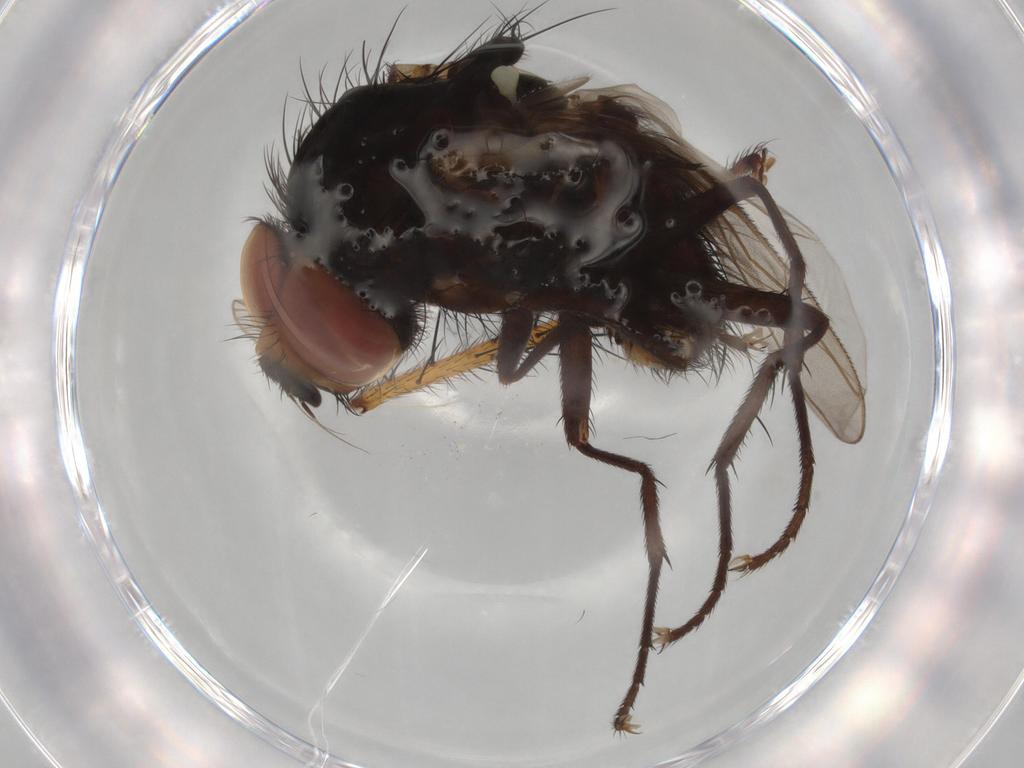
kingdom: Animalia
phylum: Arthropoda
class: Insecta
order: Diptera
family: Anthomyiidae
